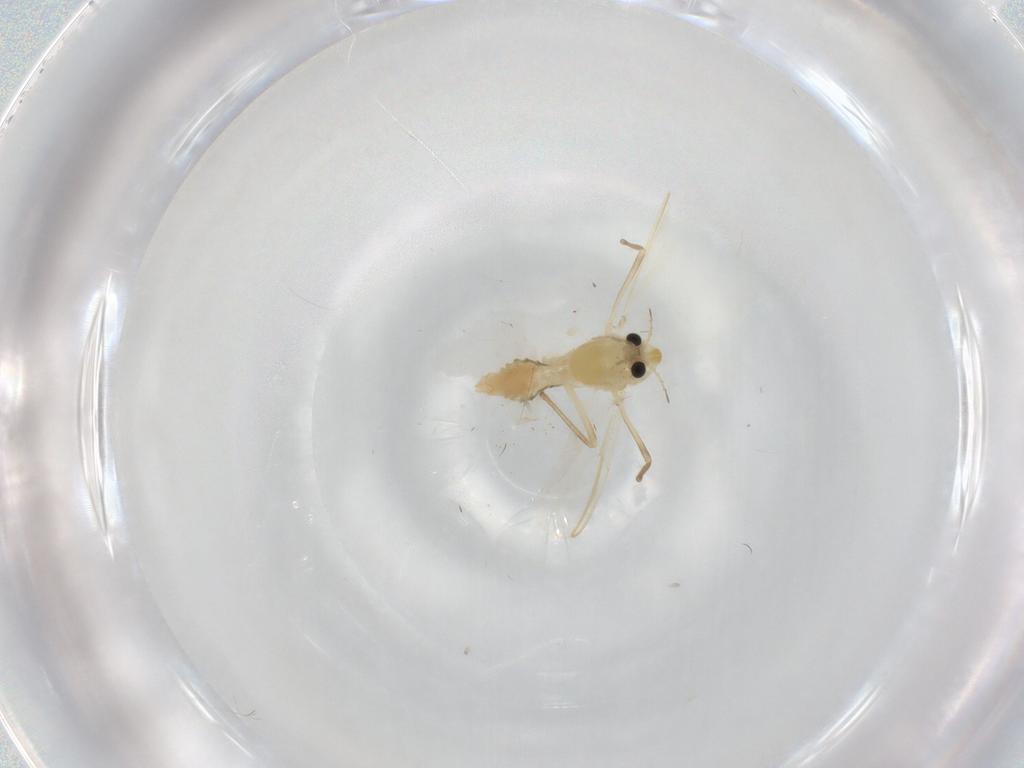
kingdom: Animalia
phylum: Arthropoda
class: Insecta
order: Diptera
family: Chironomidae
